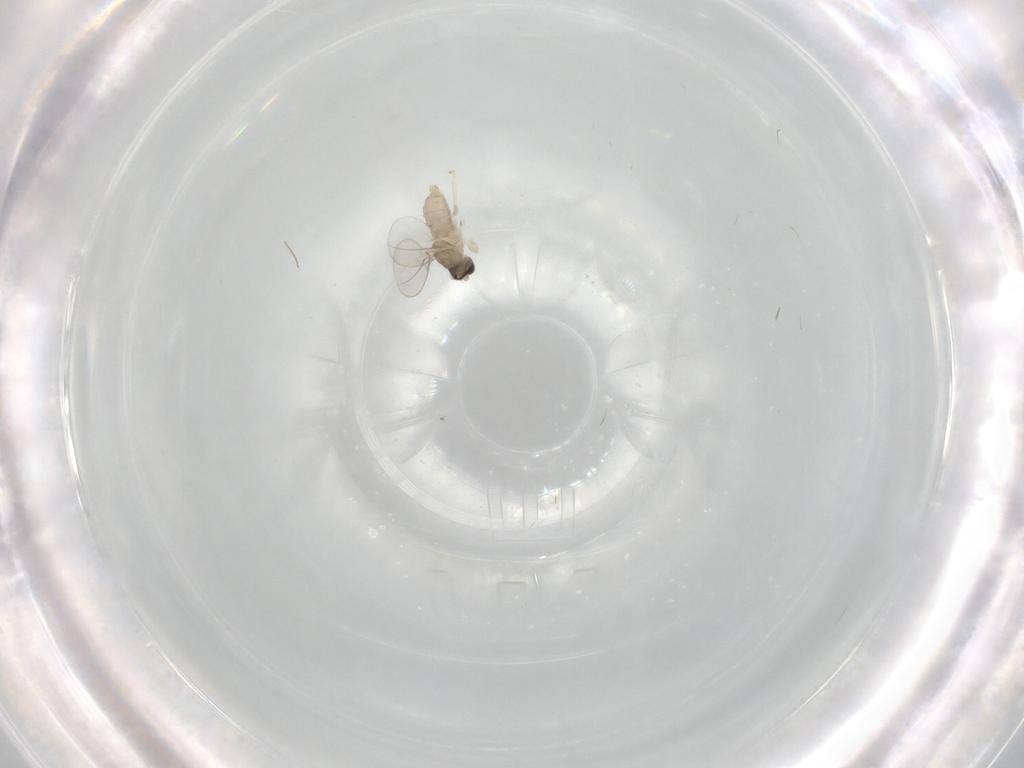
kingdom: Animalia
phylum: Arthropoda
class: Insecta
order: Diptera
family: Cecidomyiidae
